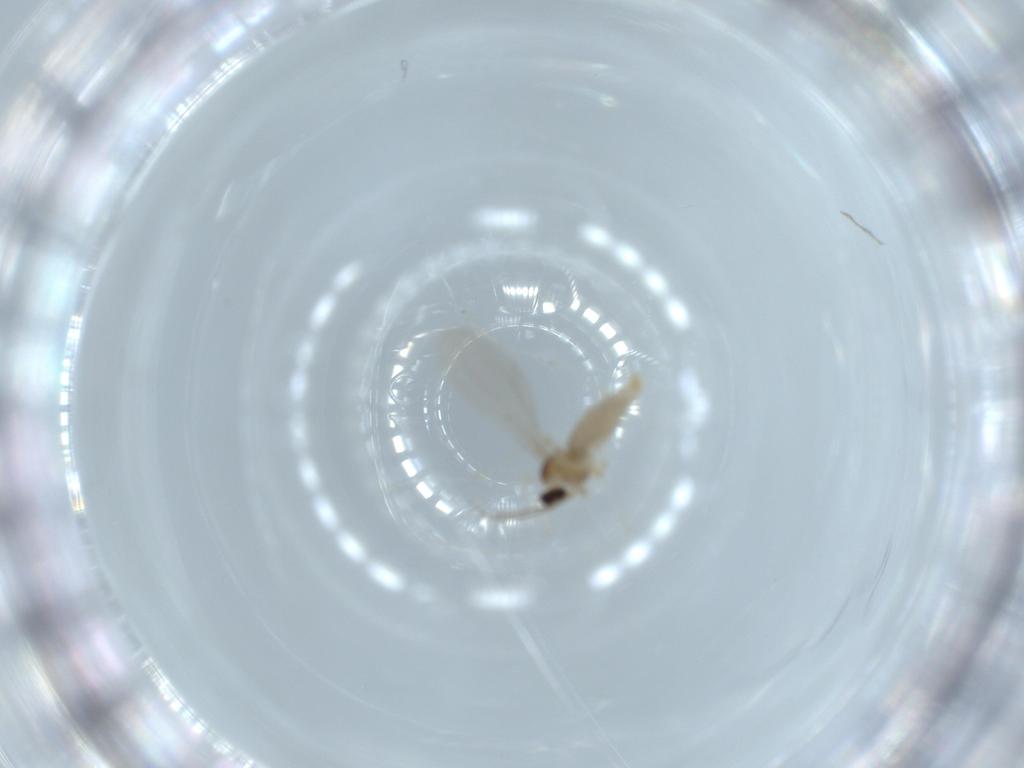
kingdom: Animalia
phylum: Arthropoda
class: Insecta
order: Diptera
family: Cecidomyiidae
